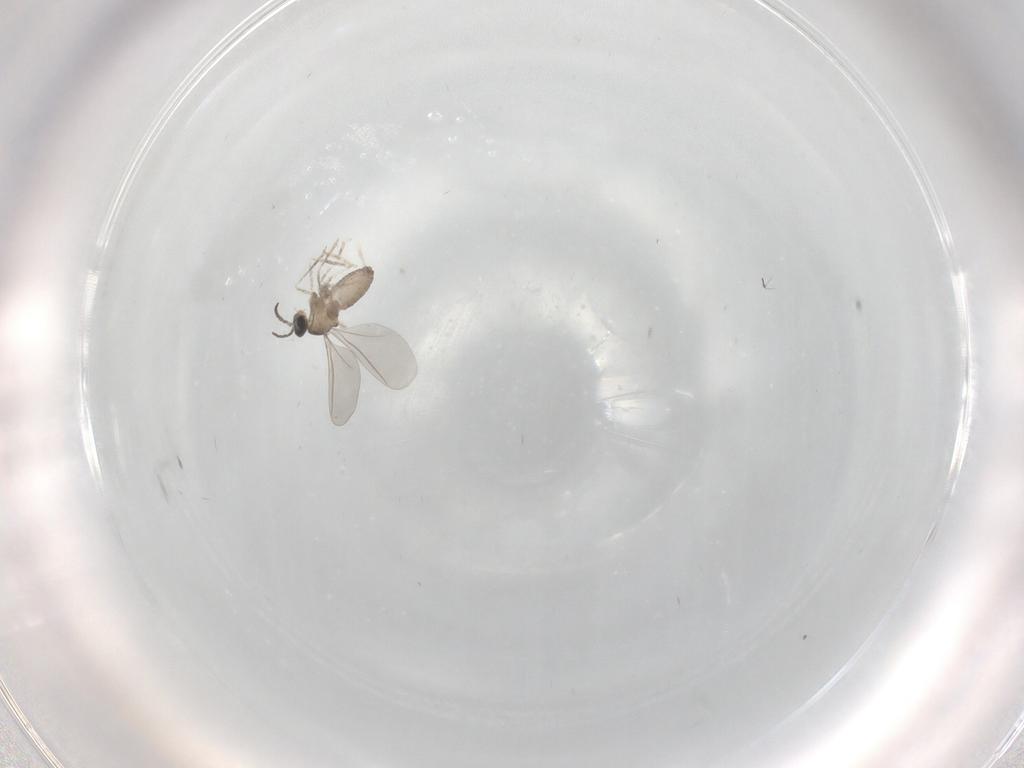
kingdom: Animalia
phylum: Arthropoda
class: Insecta
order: Diptera
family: Cecidomyiidae
